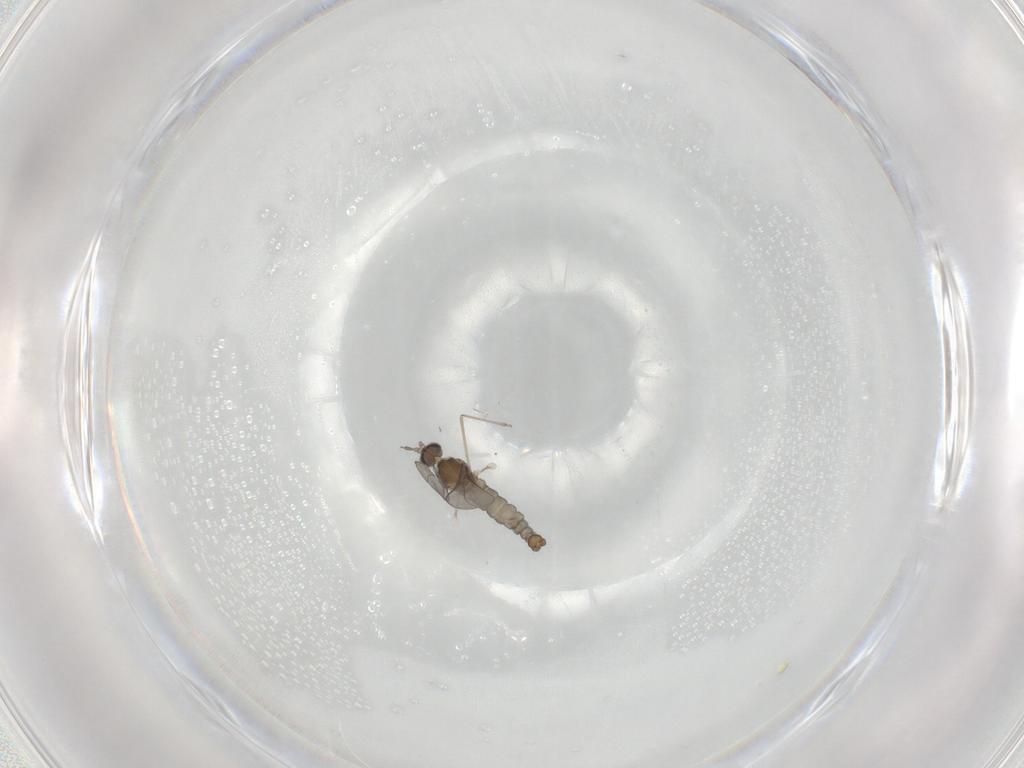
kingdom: Animalia
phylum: Arthropoda
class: Insecta
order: Diptera
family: Cecidomyiidae
